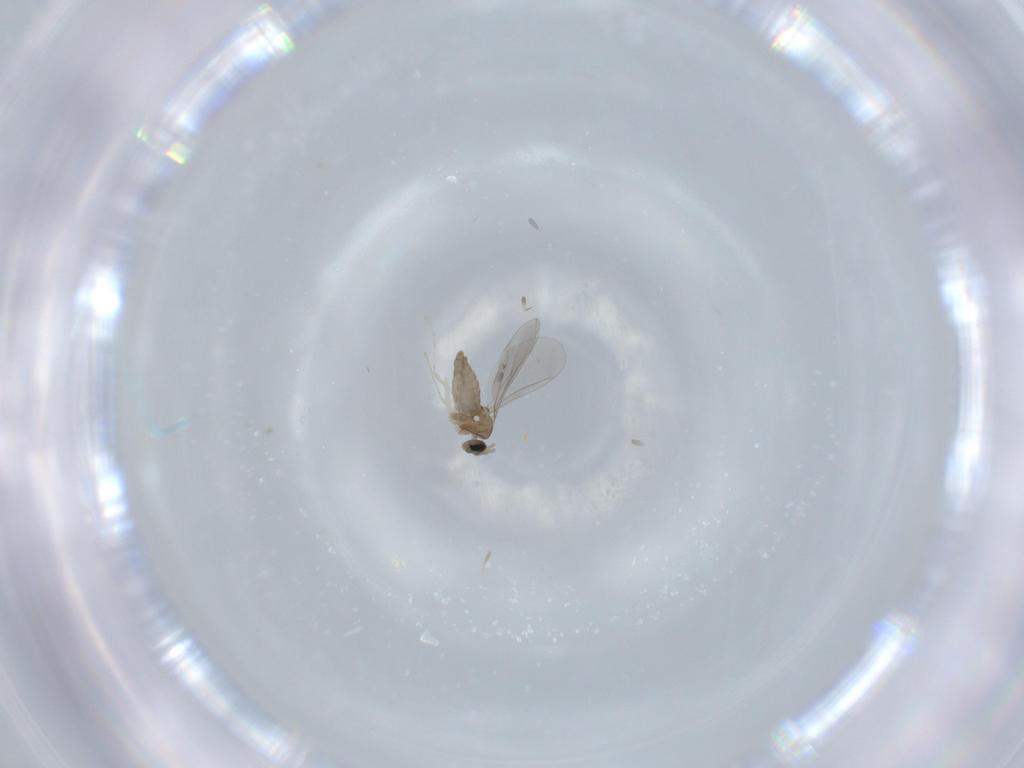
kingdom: Animalia
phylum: Arthropoda
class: Insecta
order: Diptera
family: Cecidomyiidae
